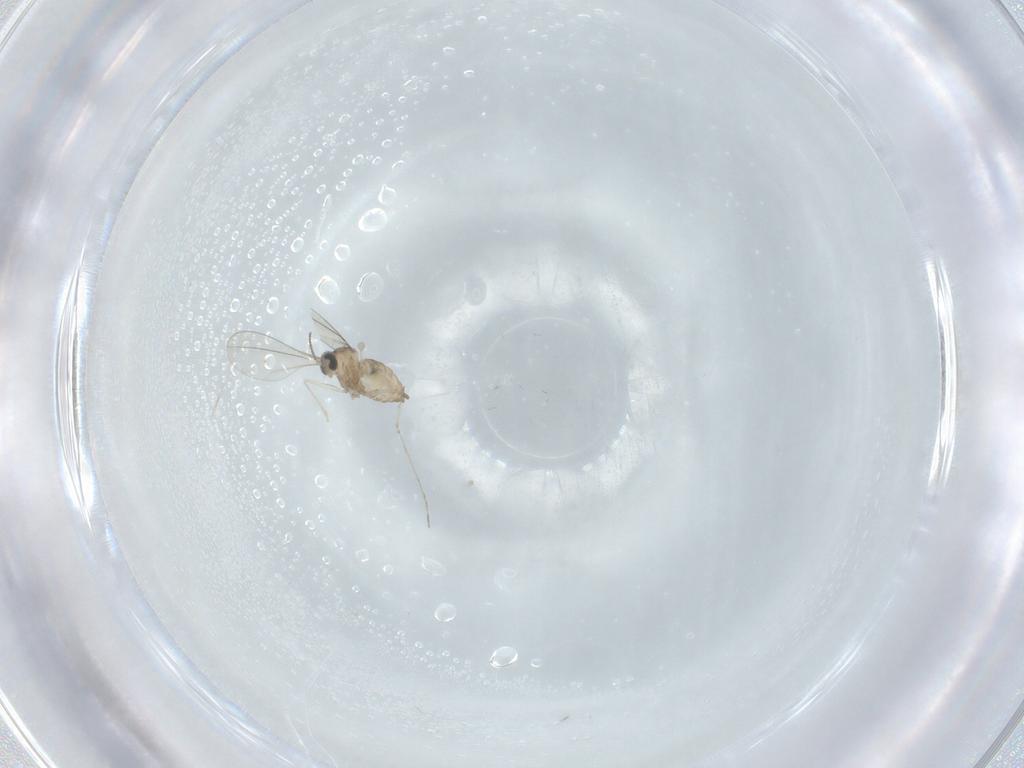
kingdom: Animalia
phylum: Arthropoda
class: Insecta
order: Diptera
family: Cecidomyiidae
